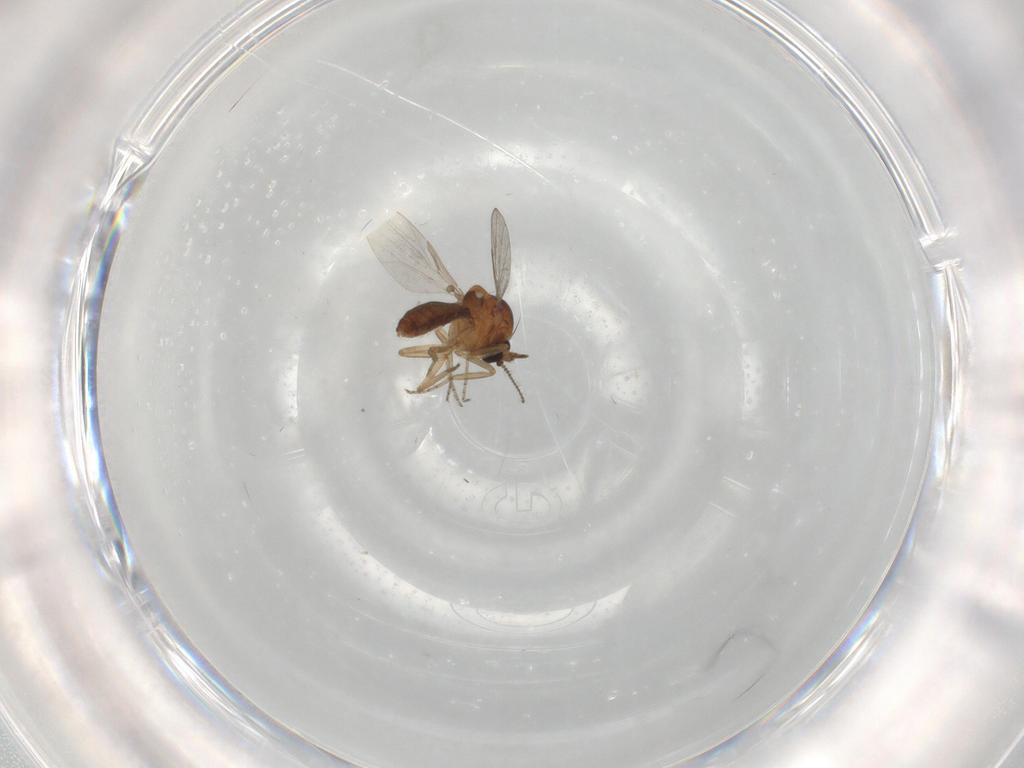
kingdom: Animalia
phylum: Arthropoda
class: Insecta
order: Diptera
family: Ceratopogonidae
